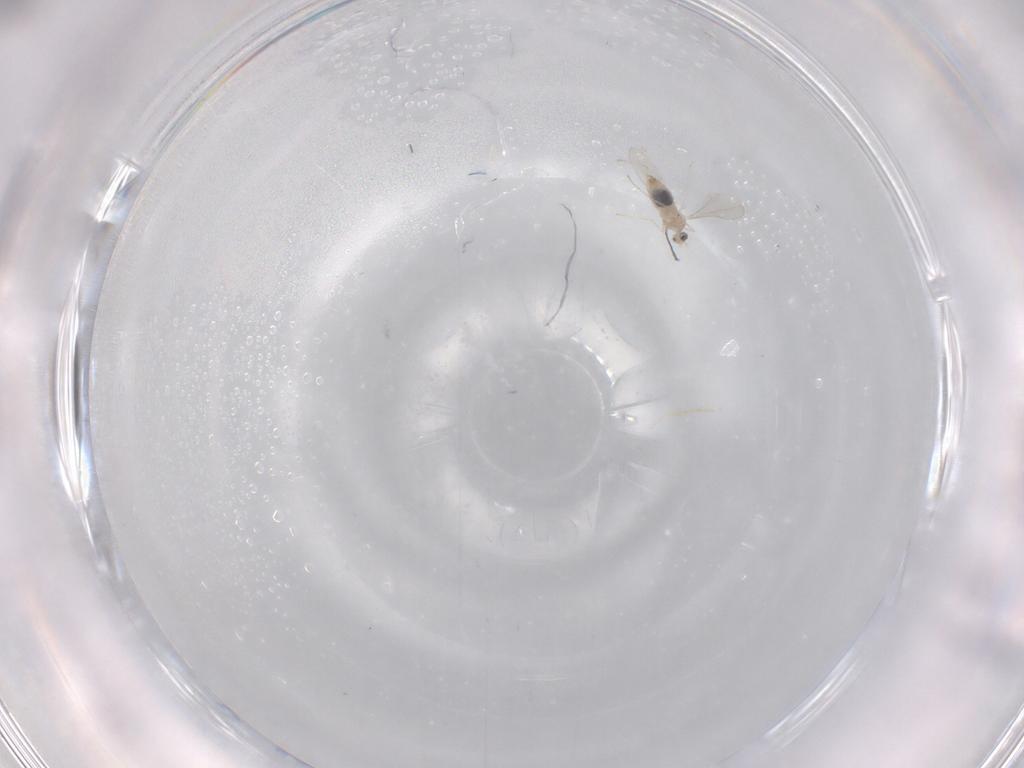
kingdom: Animalia
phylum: Arthropoda
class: Insecta
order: Diptera
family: Cecidomyiidae
